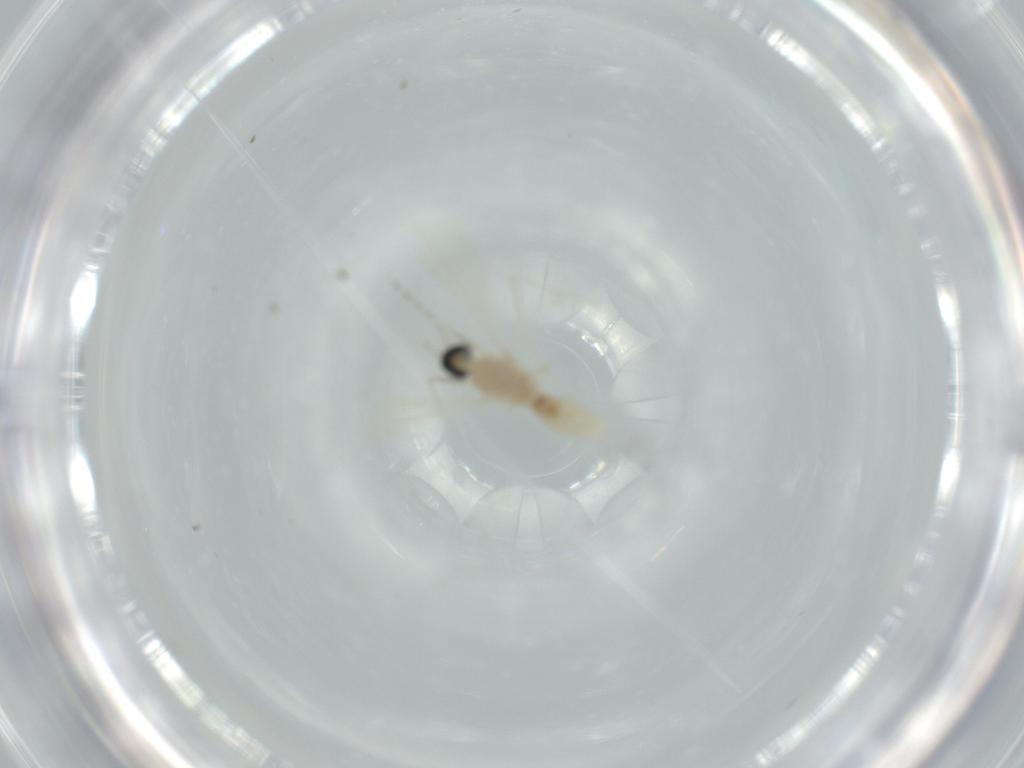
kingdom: Animalia
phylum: Arthropoda
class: Insecta
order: Diptera
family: Cecidomyiidae
